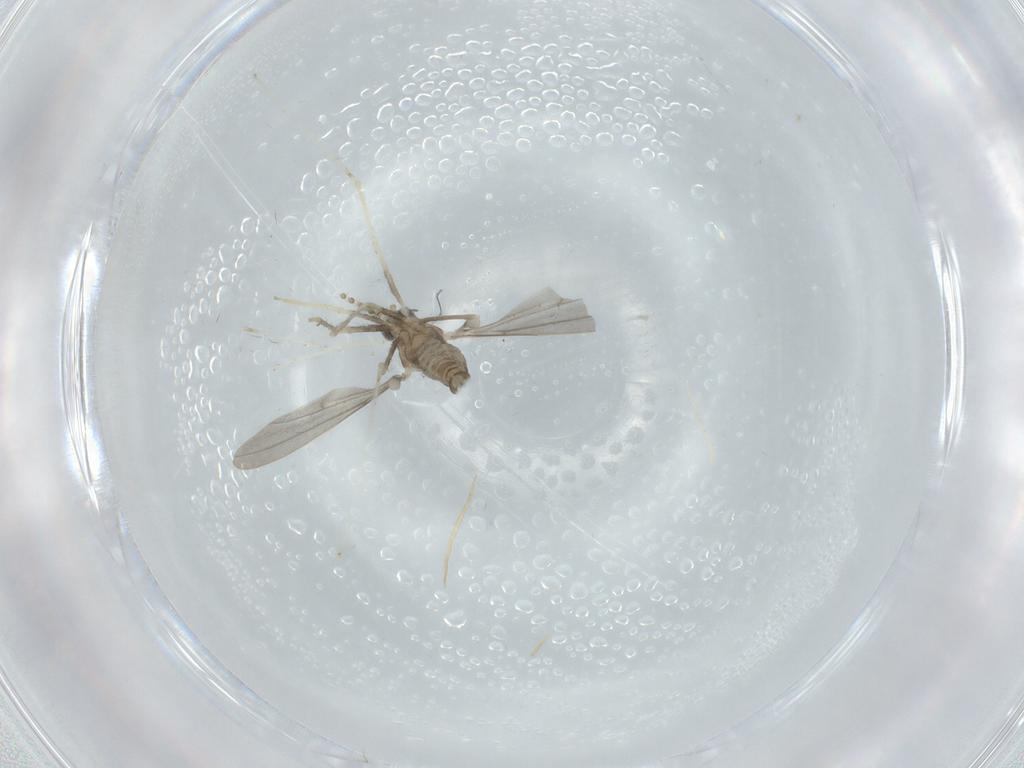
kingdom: Animalia
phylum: Arthropoda
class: Insecta
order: Diptera
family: Cecidomyiidae
